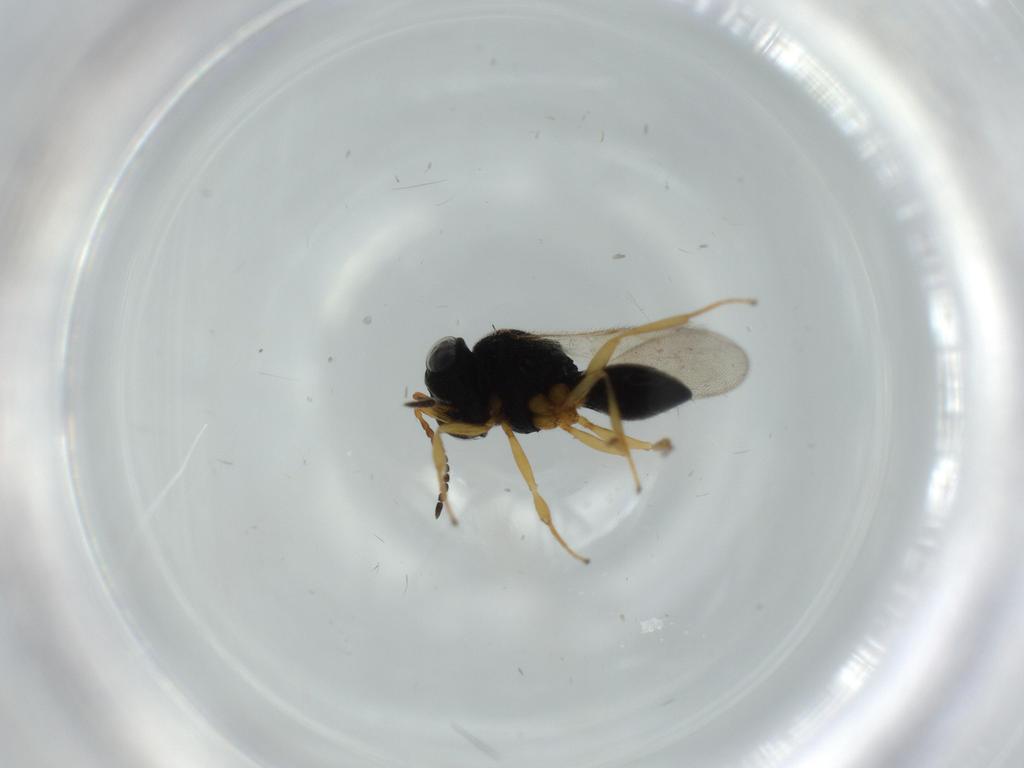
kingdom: Animalia
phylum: Arthropoda
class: Insecta
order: Hymenoptera
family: Scelionidae
